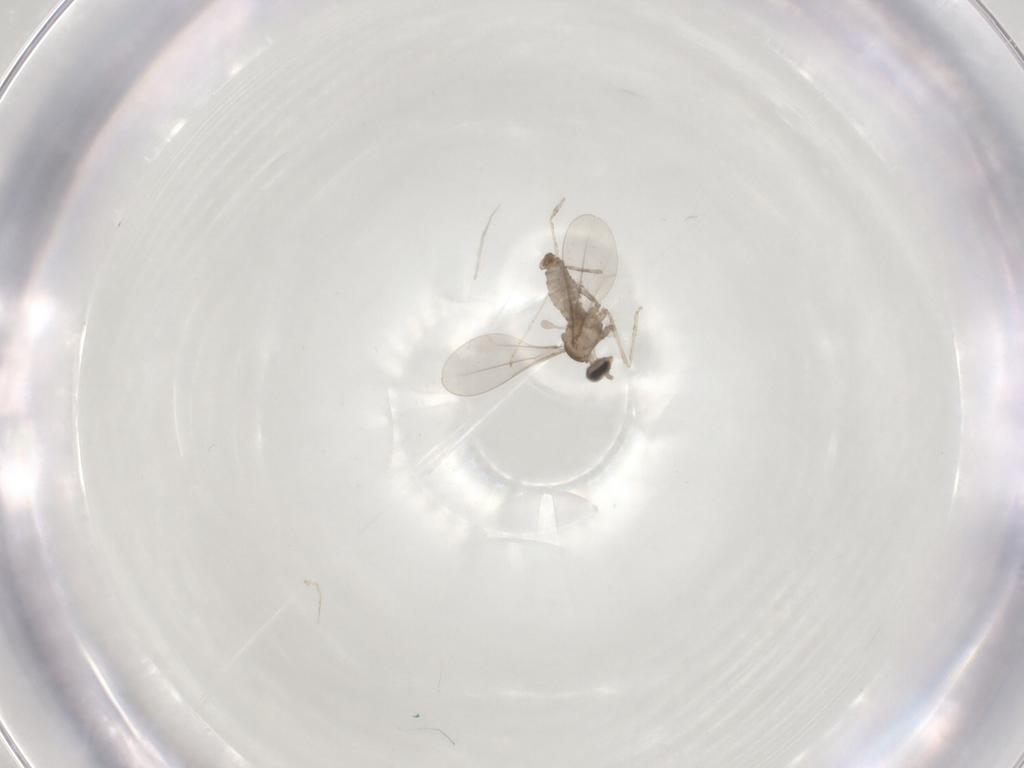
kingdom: Animalia
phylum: Arthropoda
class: Insecta
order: Diptera
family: Cecidomyiidae
